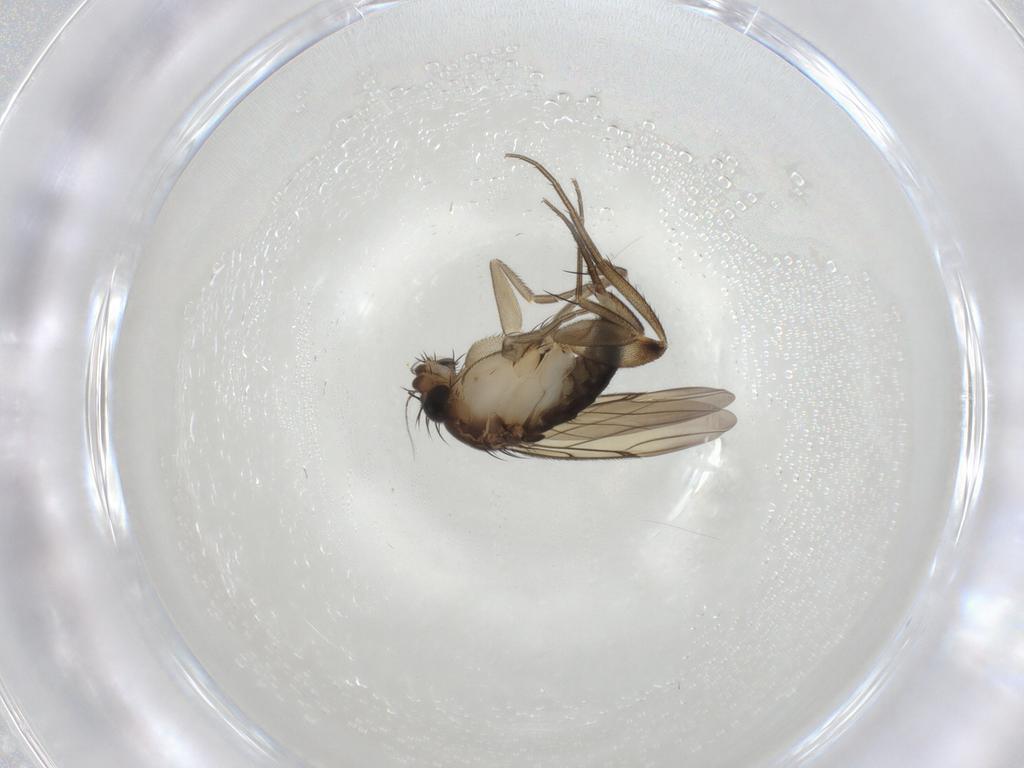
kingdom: Animalia
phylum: Arthropoda
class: Insecta
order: Diptera
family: Phoridae
